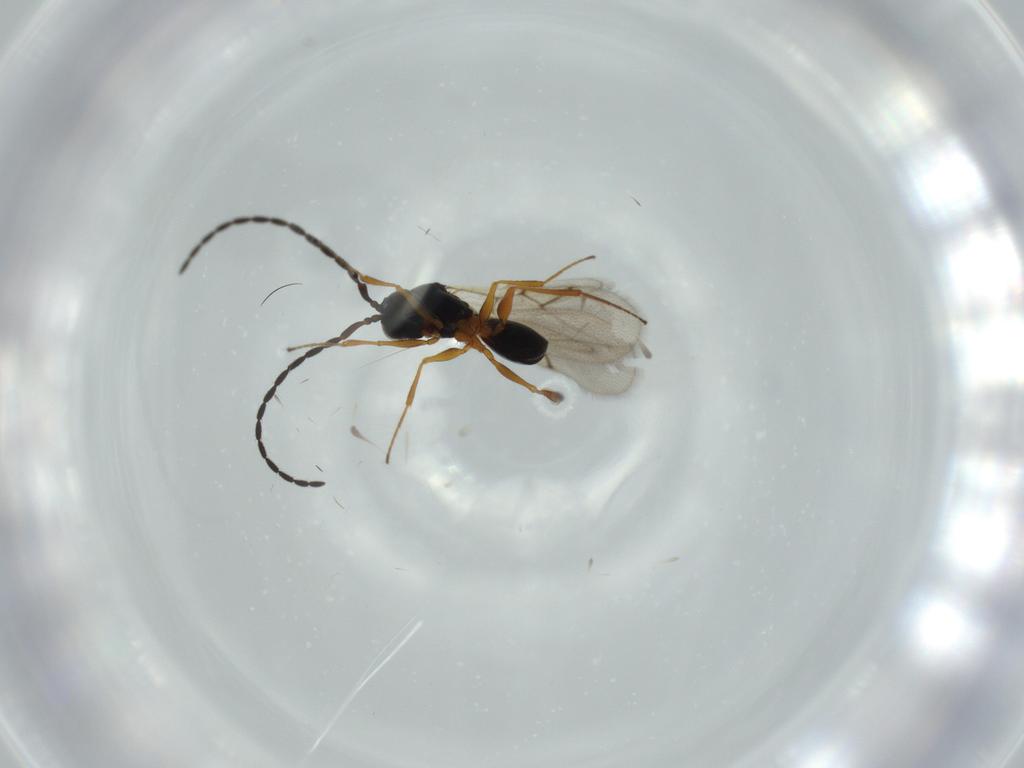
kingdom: Animalia
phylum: Arthropoda
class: Insecta
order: Hymenoptera
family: Figitidae
